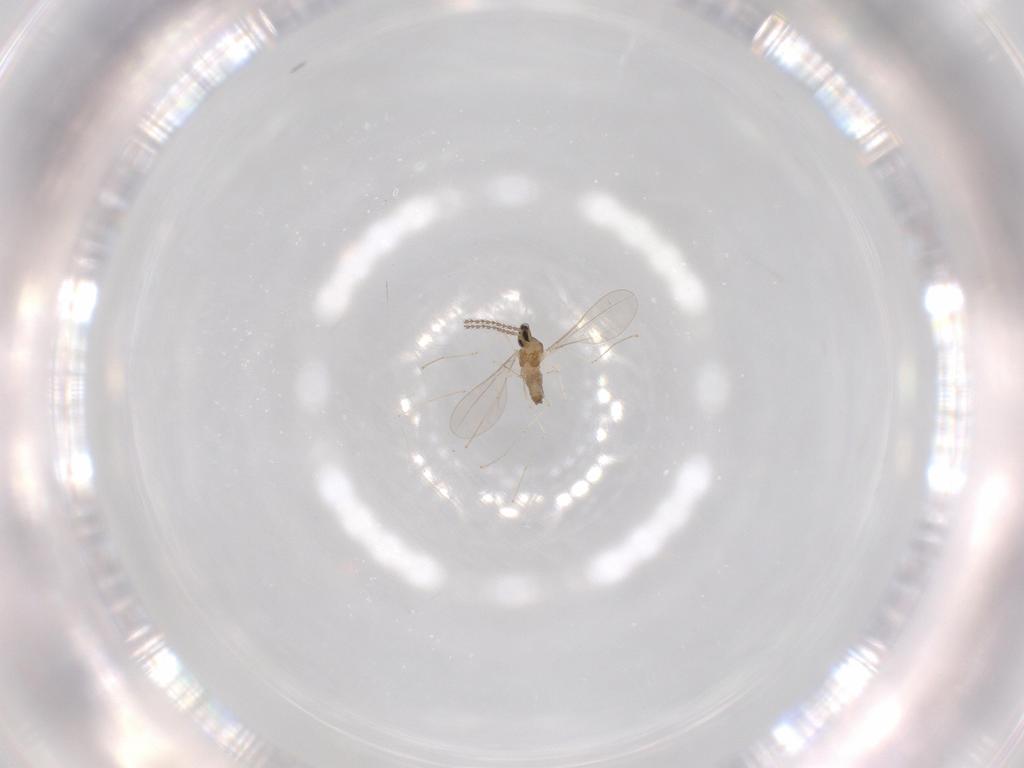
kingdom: Animalia
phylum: Arthropoda
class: Insecta
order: Diptera
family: Cecidomyiidae
